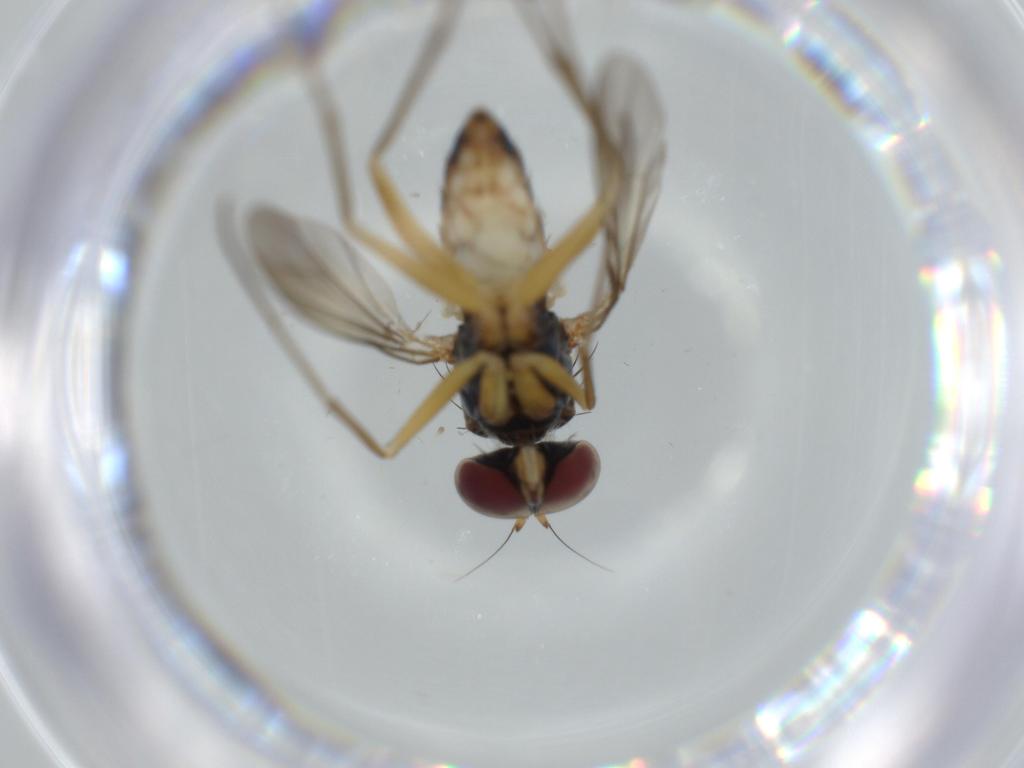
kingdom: Animalia
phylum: Arthropoda
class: Insecta
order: Diptera
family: Dolichopodidae
